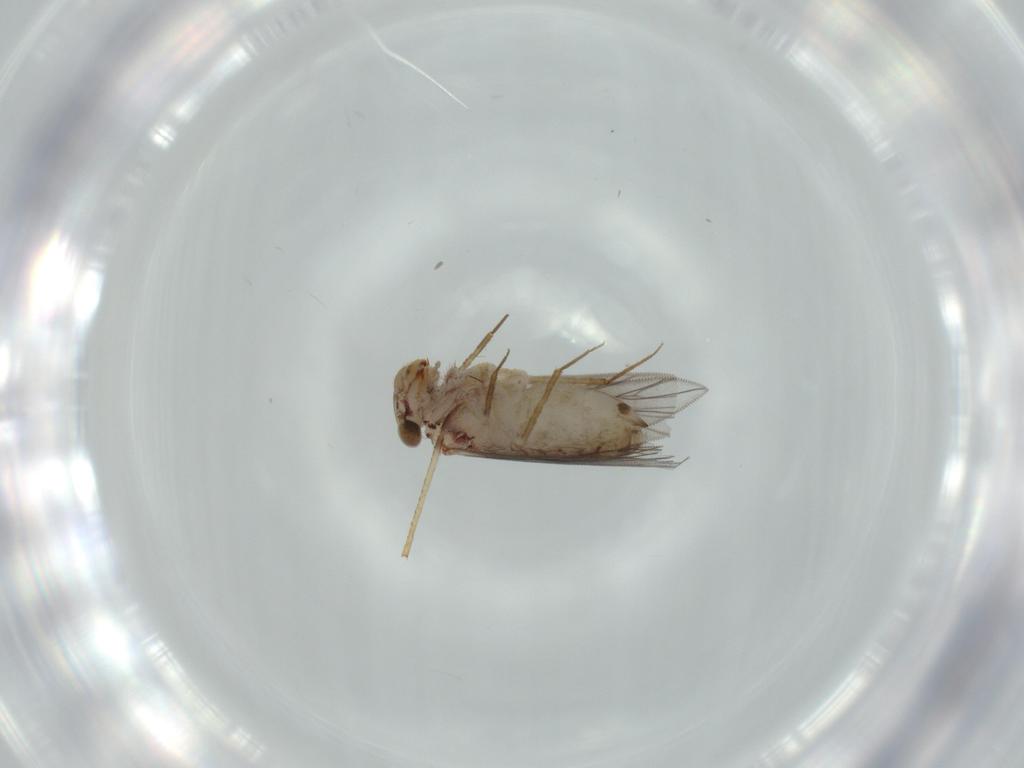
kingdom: Animalia
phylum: Arthropoda
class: Insecta
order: Psocodea
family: Lepidopsocidae
